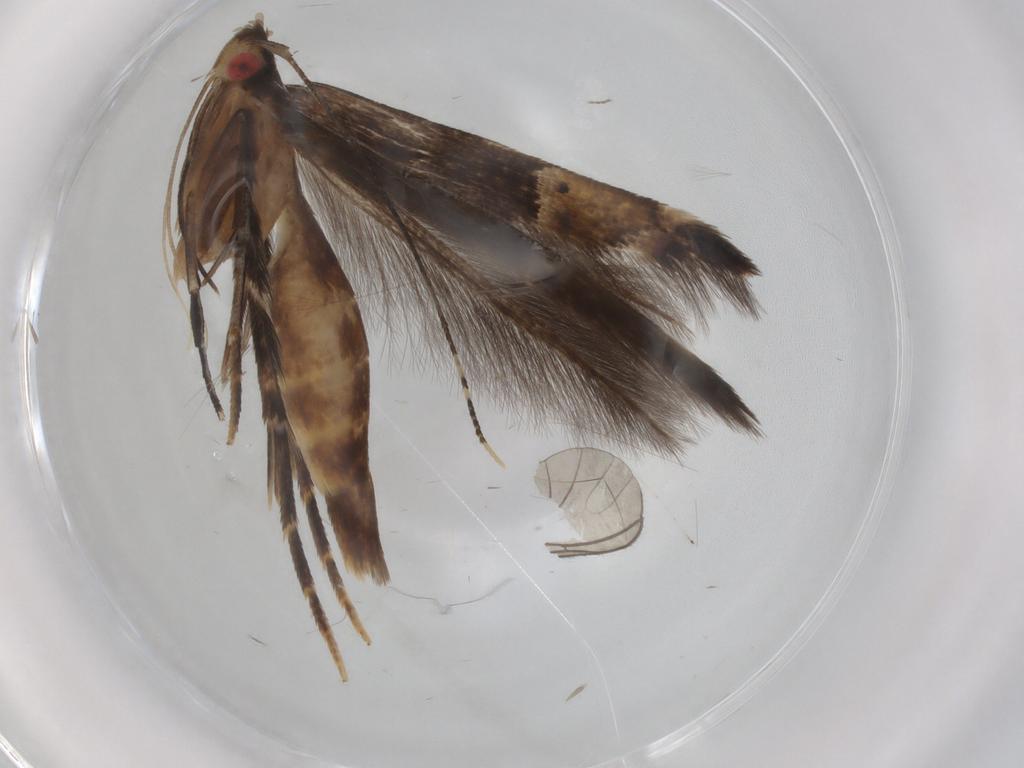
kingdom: Animalia
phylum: Arthropoda
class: Insecta
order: Lepidoptera
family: Cosmopterigidae
